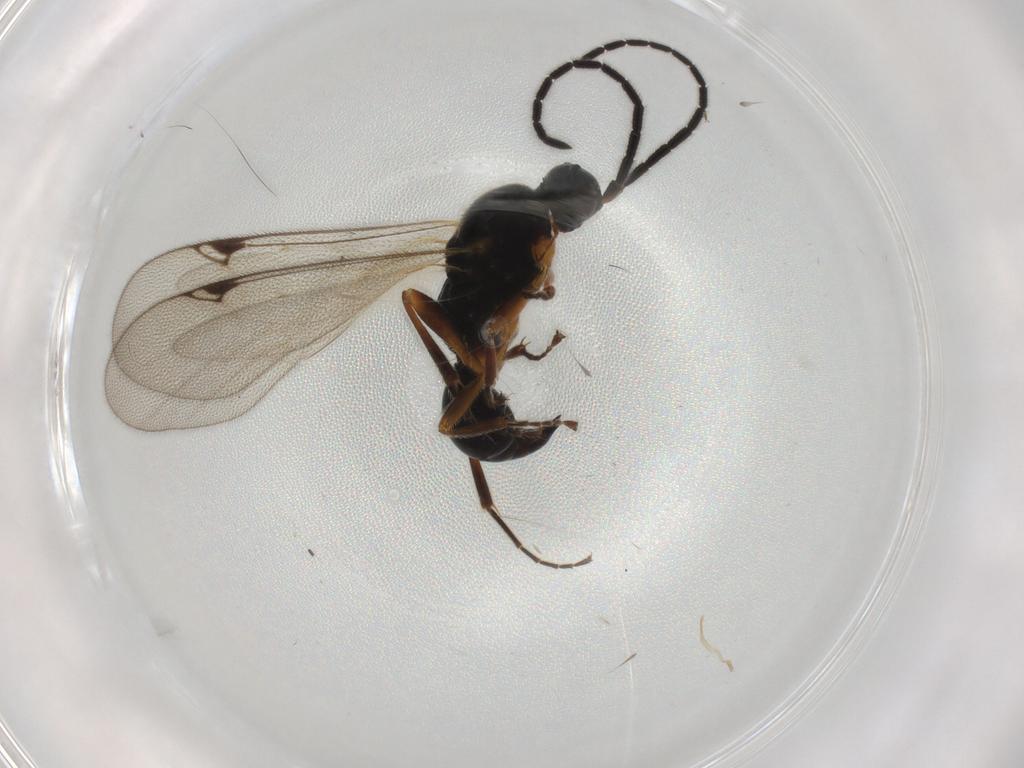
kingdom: Animalia
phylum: Arthropoda
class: Insecta
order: Hymenoptera
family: Proctotrupidae
